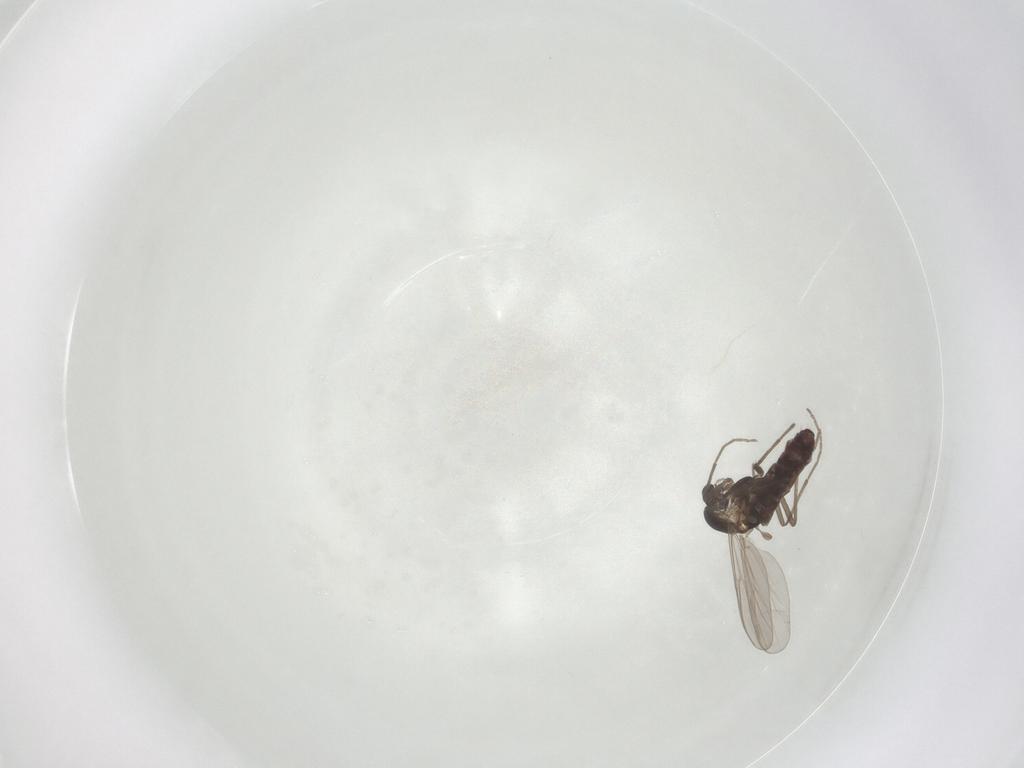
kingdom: Animalia
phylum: Arthropoda
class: Insecta
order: Diptera
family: Chironomidae
